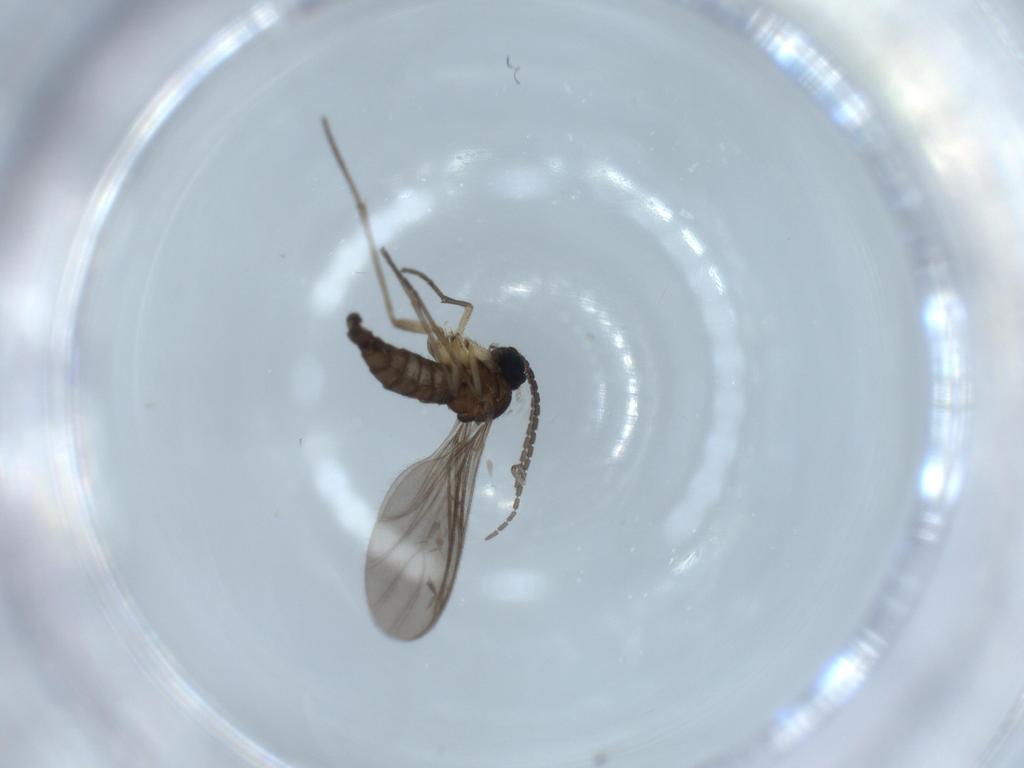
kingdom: Animalia
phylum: Arthropoda
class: Insecta
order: Diptera
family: Sciaridae
